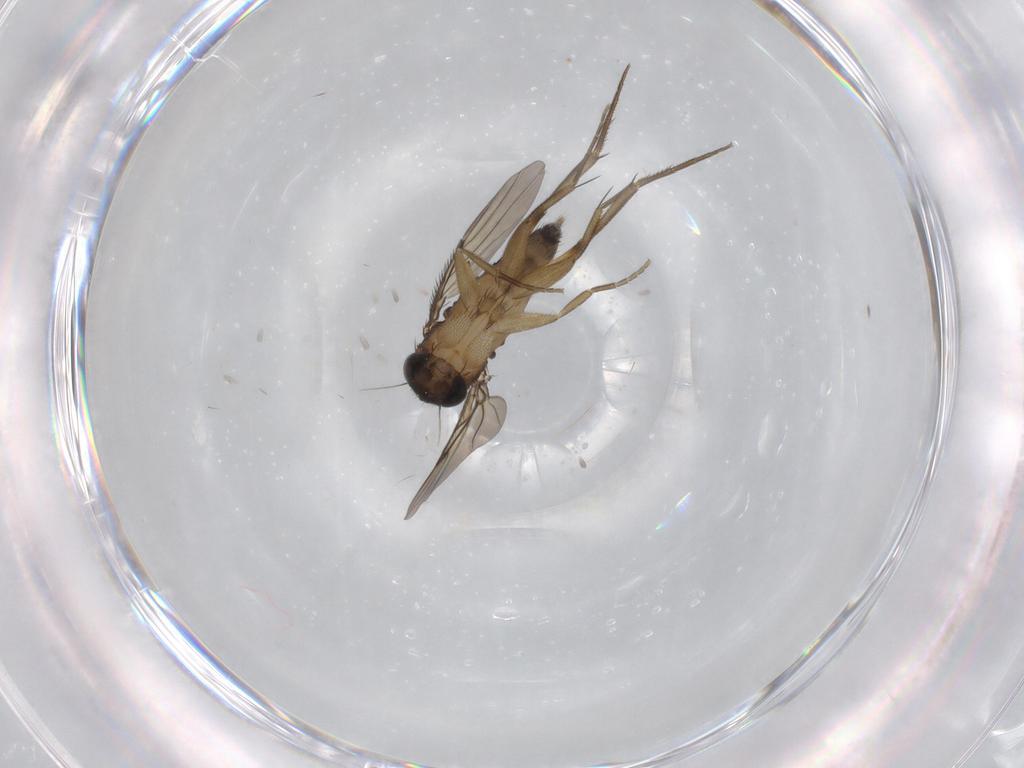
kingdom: Animalia
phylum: Arthropoda
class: Insecta
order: Diptera
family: Phoridae
